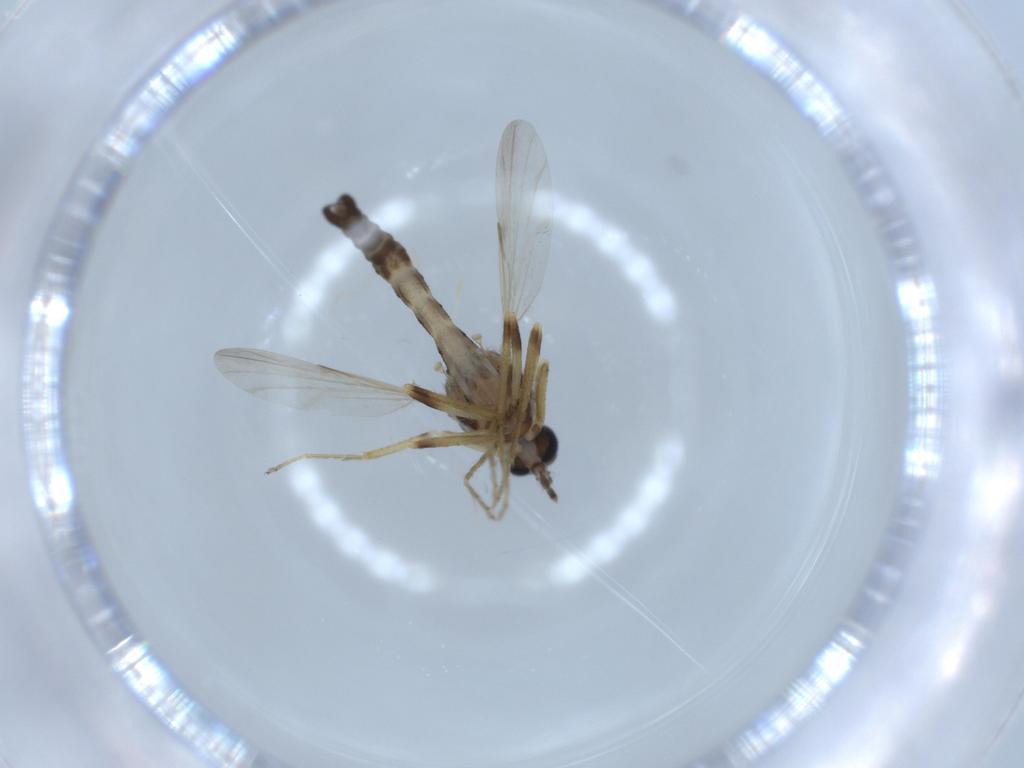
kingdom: Animalia
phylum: Arthropoda
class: Insecta
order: Diptera
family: Ceratopogonidae
